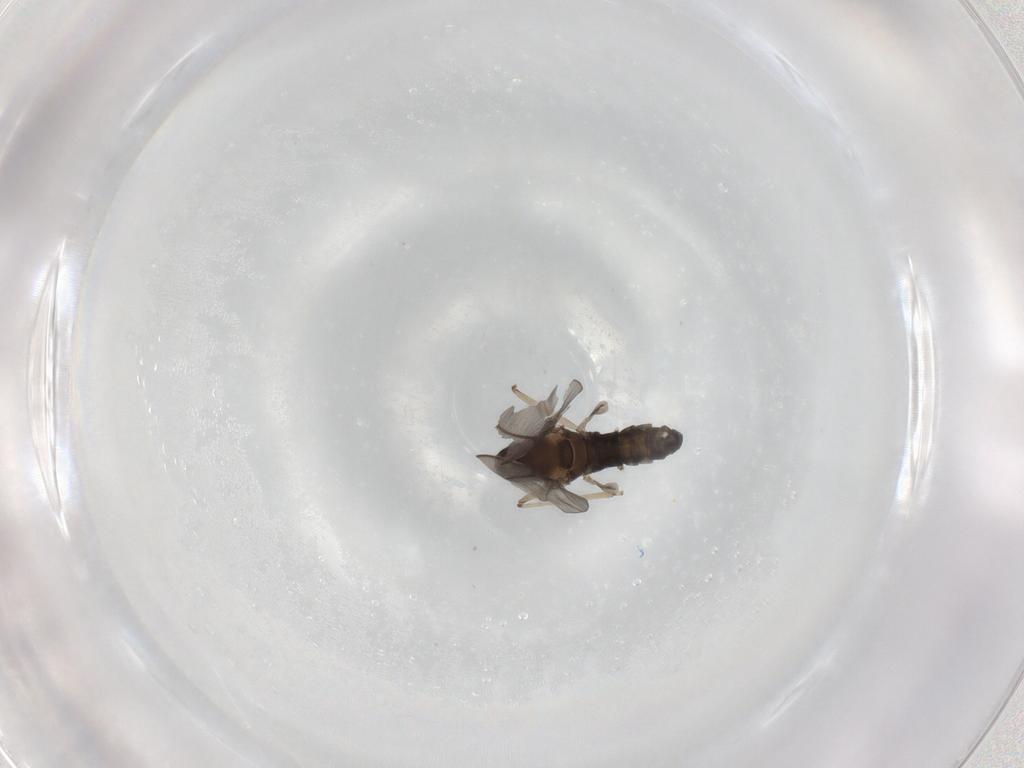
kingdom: Animalia
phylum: Arthropoda
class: Insecta
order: Diptera
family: Cecidomyiidae
